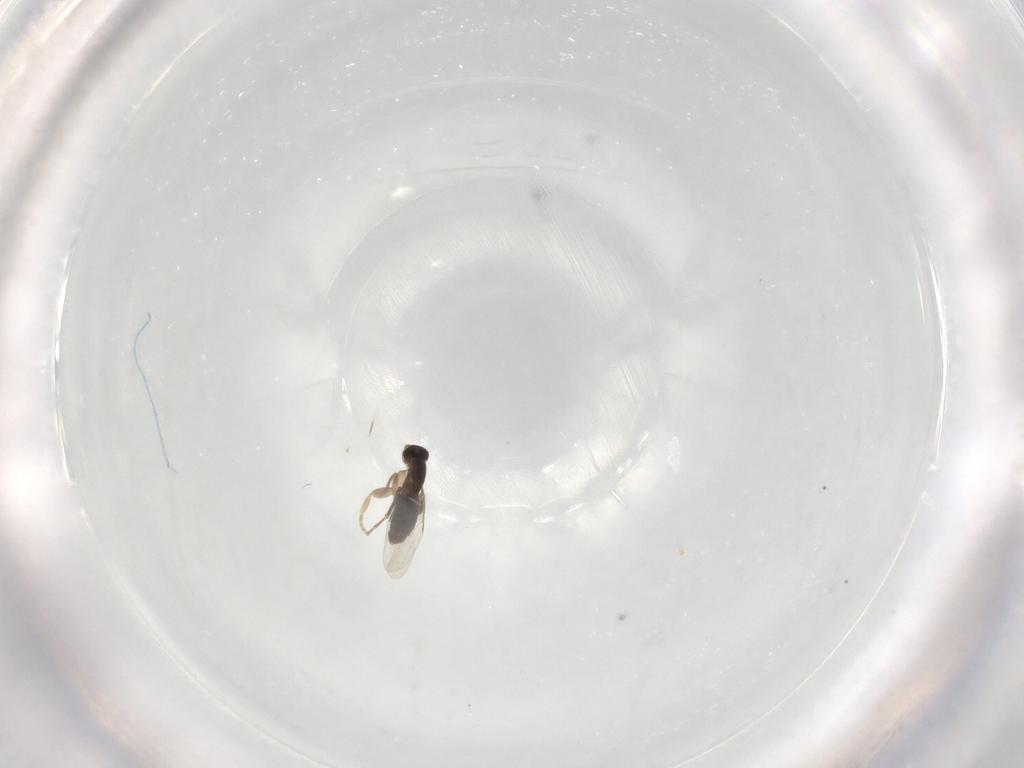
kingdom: Animalia
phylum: Arthropoda
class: Insecta
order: Diptera
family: Phoridae
